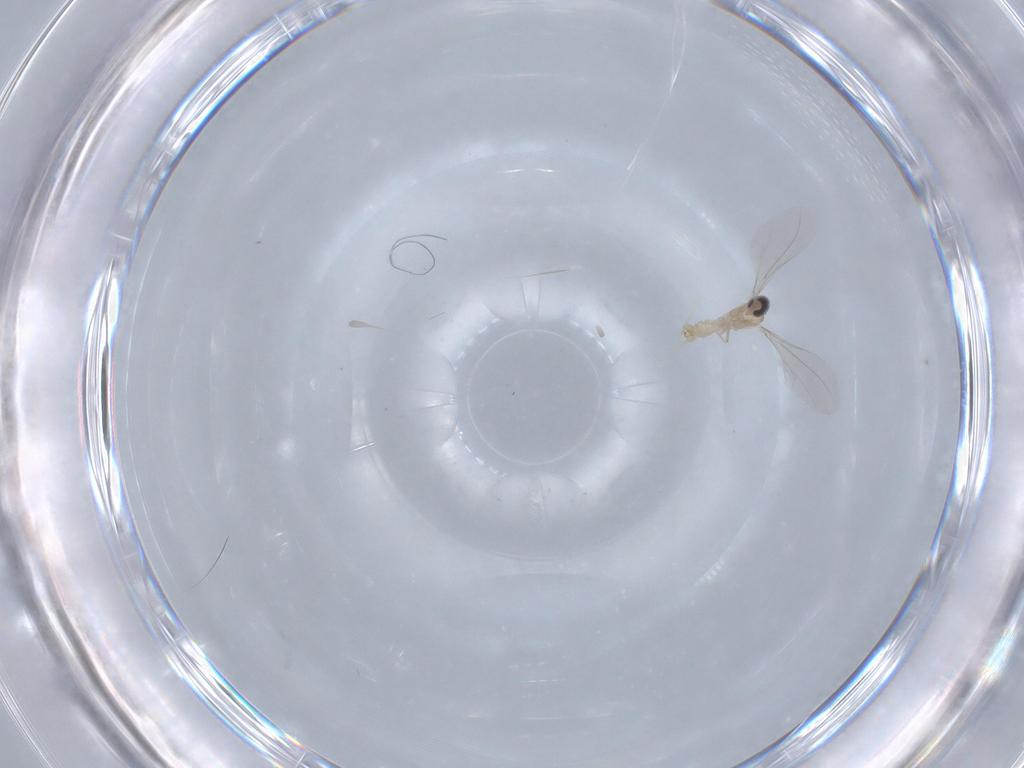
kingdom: Animalia
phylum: Arthropoda
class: Insecta
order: Diptera
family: Cecidomyiidae
